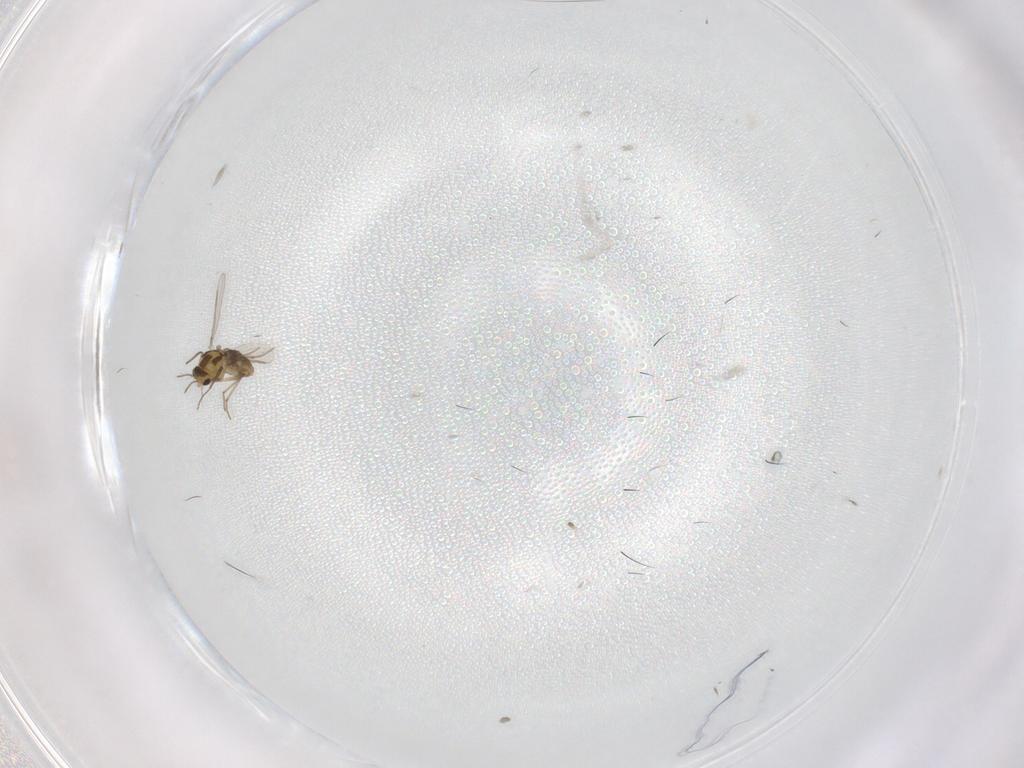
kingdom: Animalia
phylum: Arthropoda
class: Insecta
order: Diptera
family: Chironomidae
